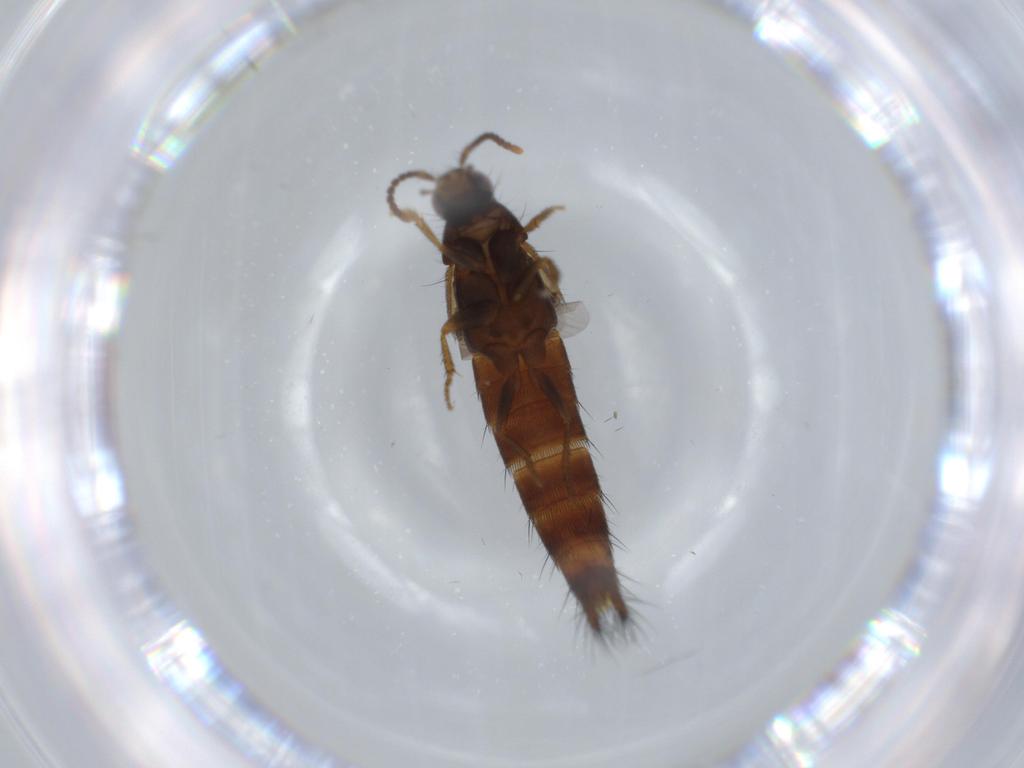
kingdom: Animalia
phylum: Arthropoda
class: Insecta
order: Coleoptera
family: Staphylinidae
